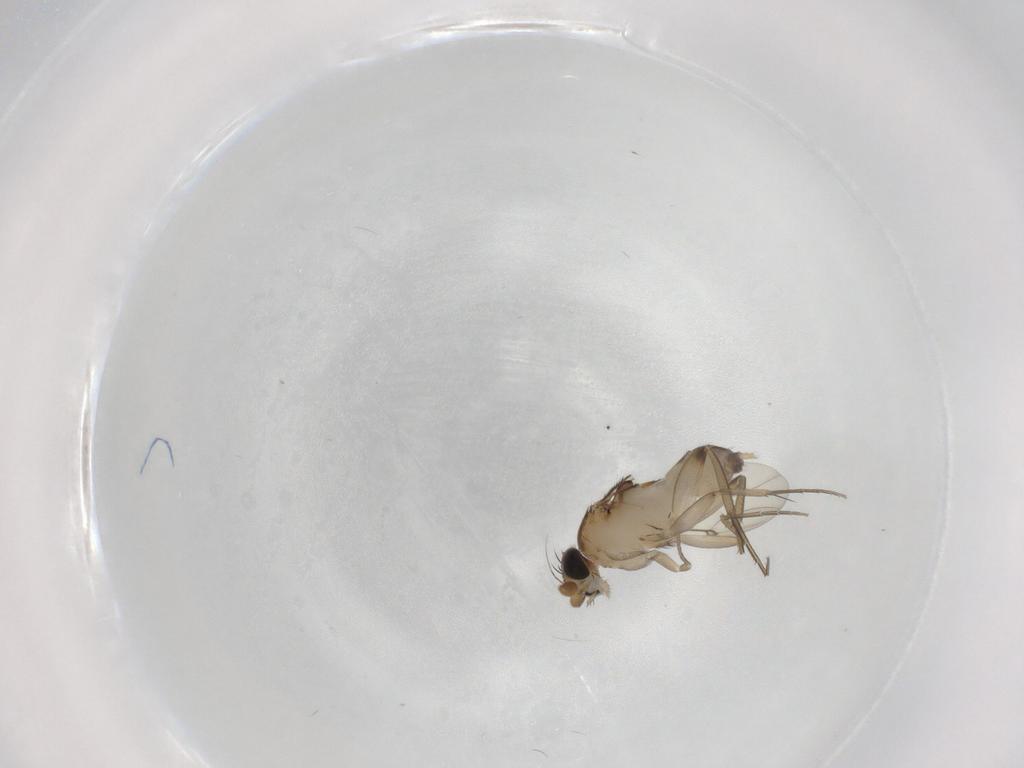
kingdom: Animalia
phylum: Arthropoda
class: Insecta
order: Diptera
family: Phoridae
